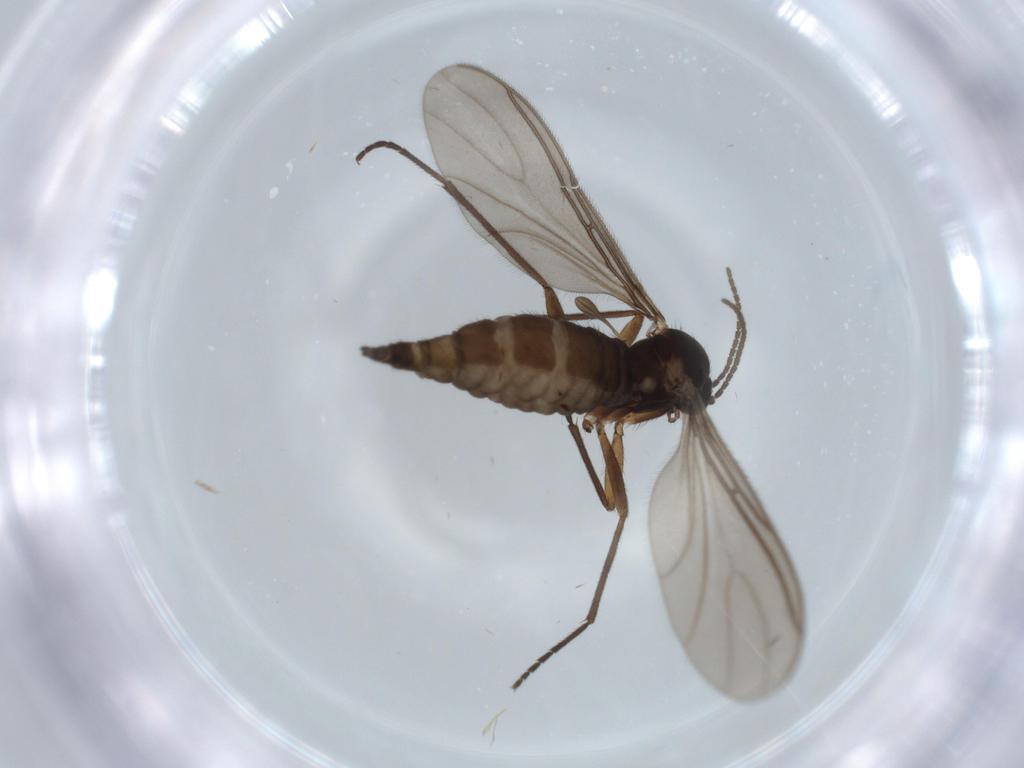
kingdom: Animalia
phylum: Arthropoda
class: Insecta
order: Diptera
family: Sciaridae
